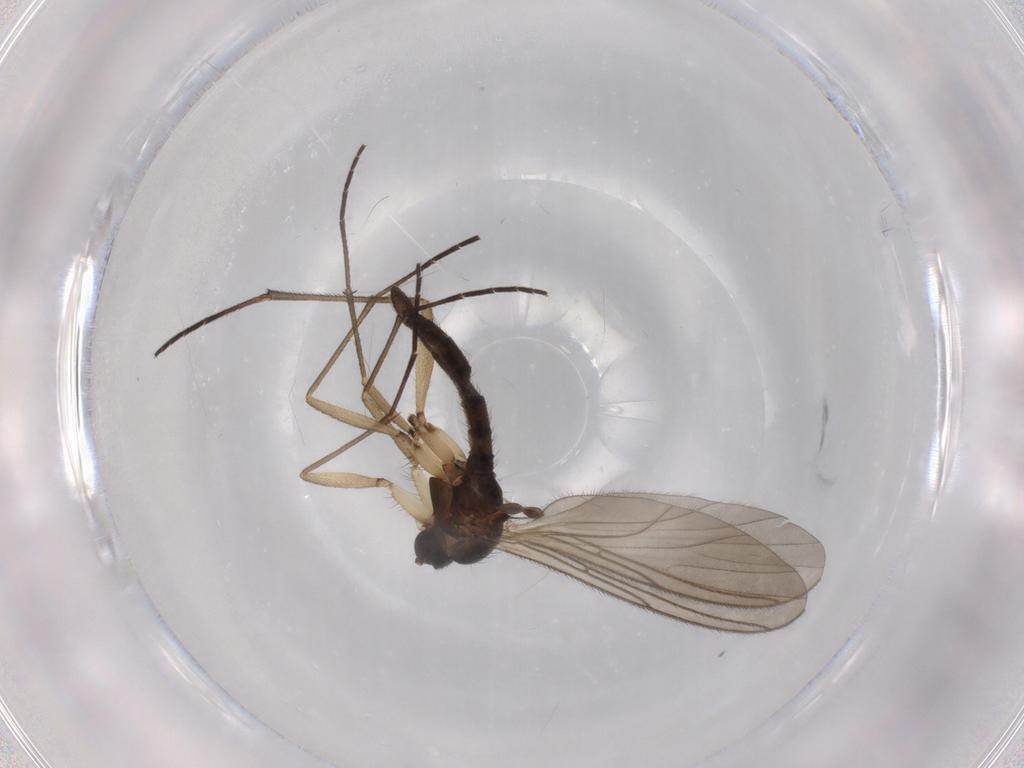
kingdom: Animalia
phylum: Arthropoda
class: Insecta
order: Diptera
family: Sciaridae
